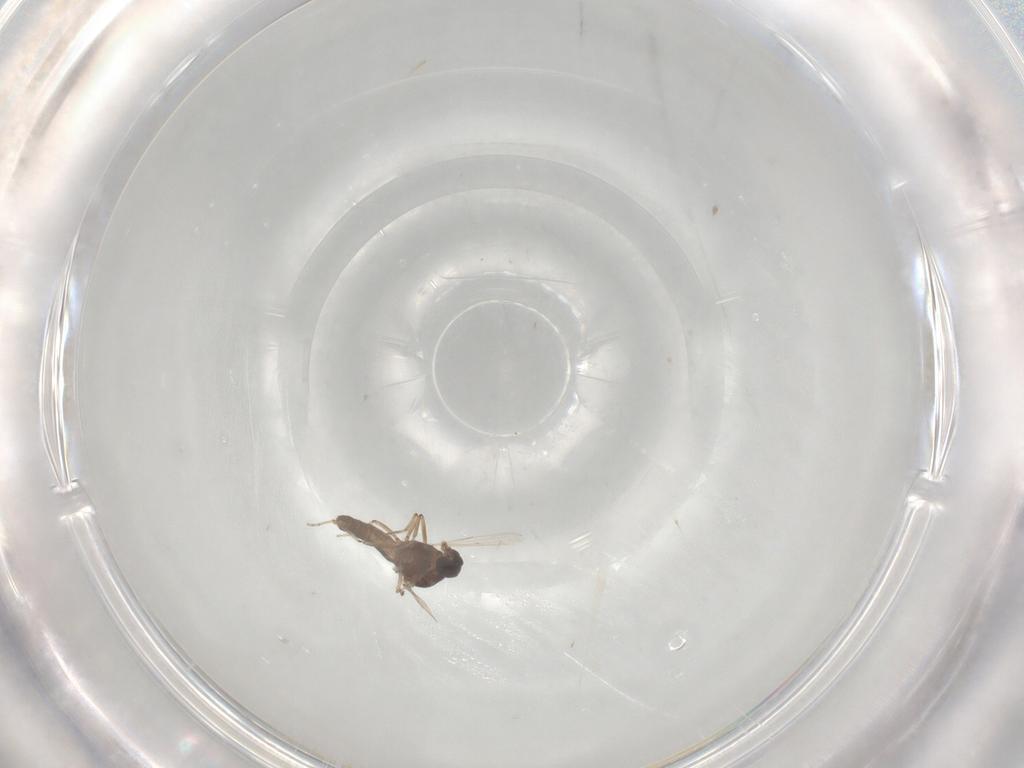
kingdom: Animalia
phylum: Arthropoda
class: Insecta
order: Diptera
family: Ceratopogonidae
